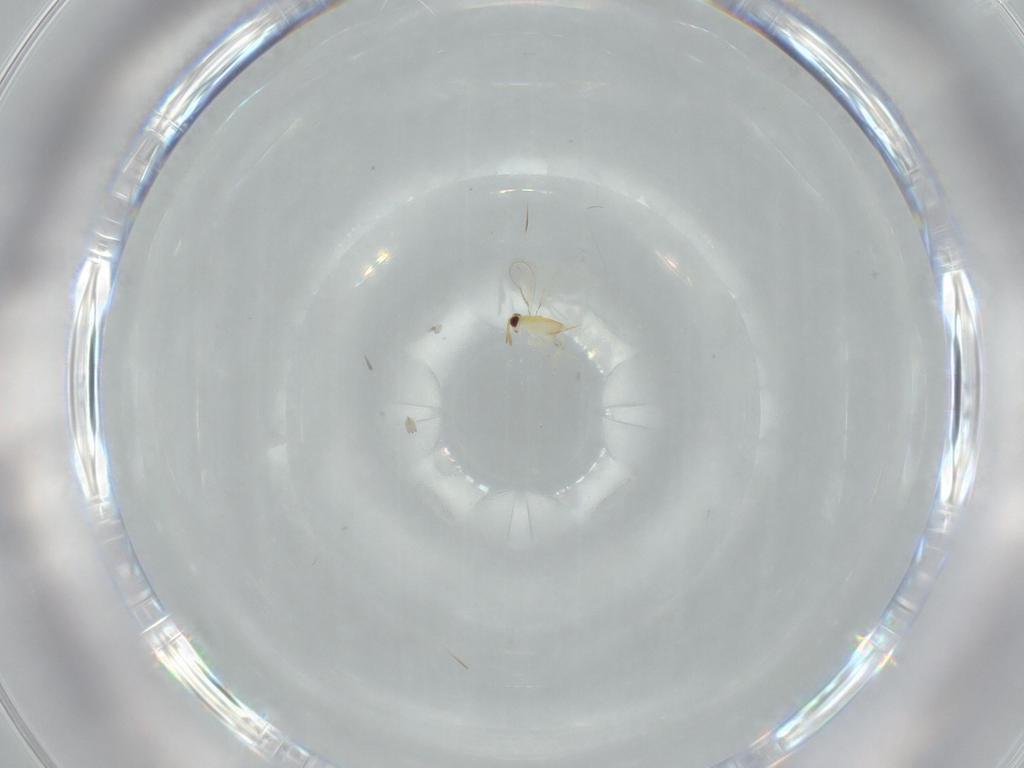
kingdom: Animalia
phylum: Arthropoda
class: Insecta
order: Hymenoptera
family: Aphelinidae
